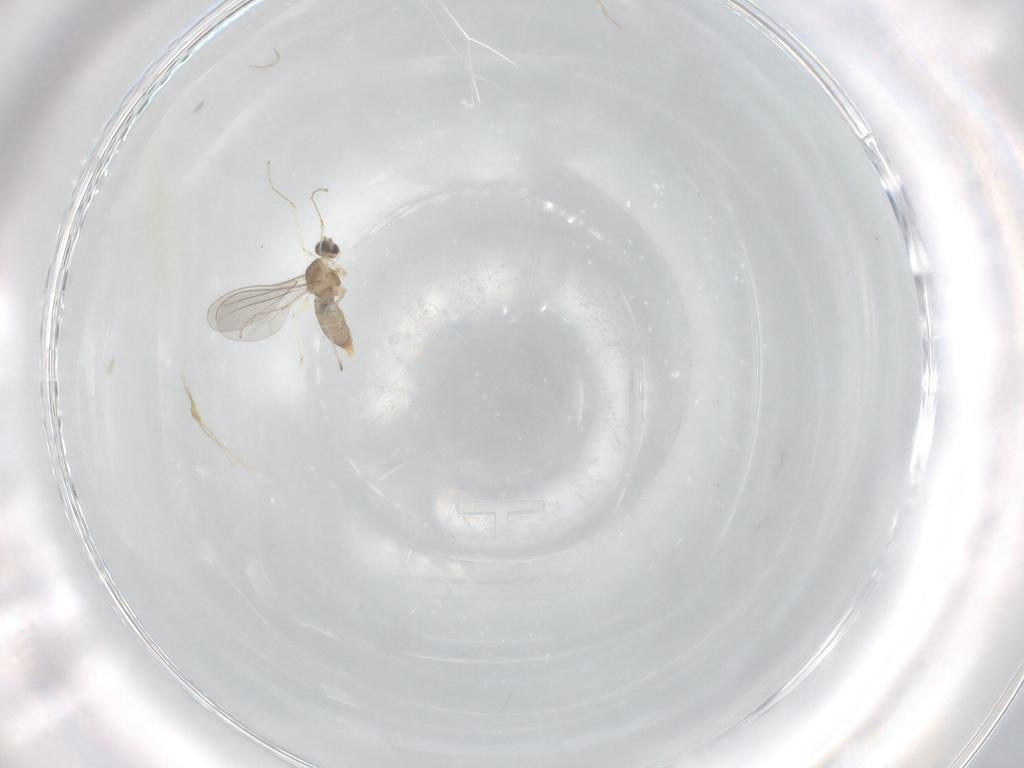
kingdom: Animalia
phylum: Arthropoda
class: Insecta
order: Diptera
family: Cecidomyiidae
